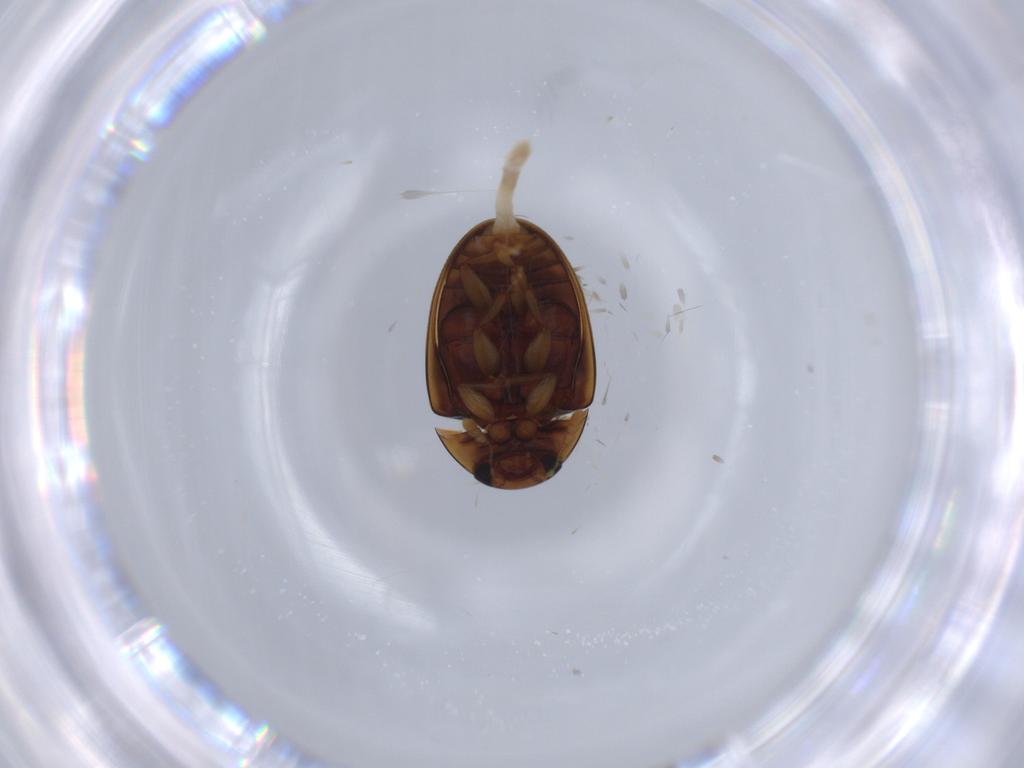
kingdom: Animalia
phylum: Arthropoda
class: Insecta
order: Coleoptera
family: Phalacridae
